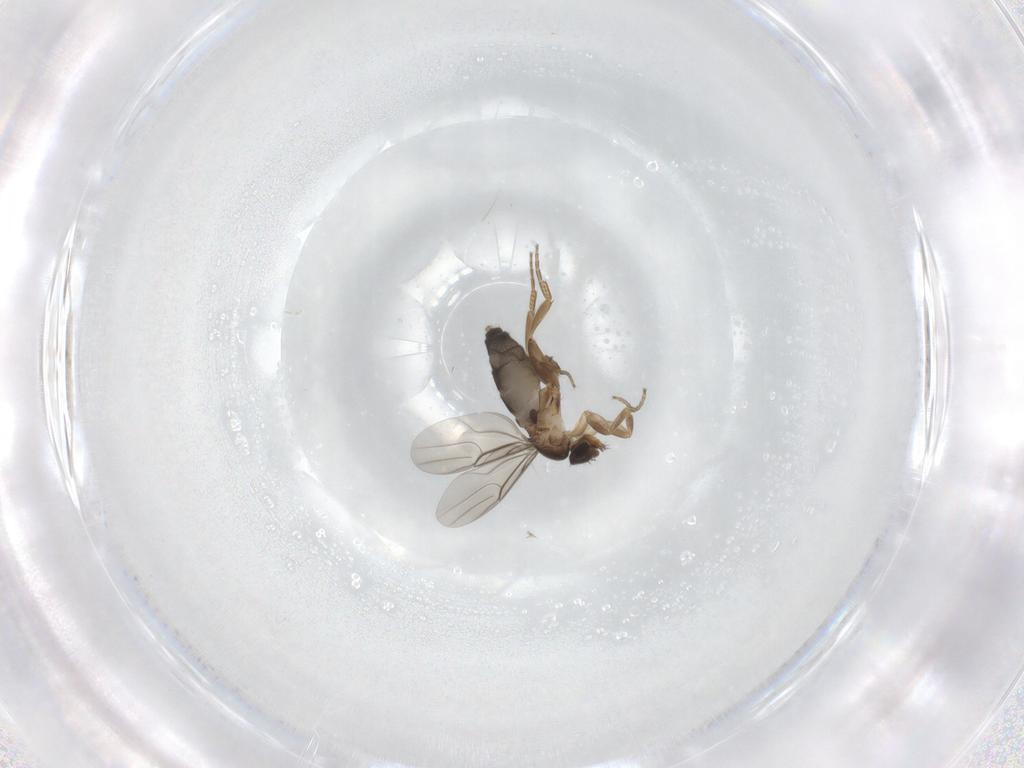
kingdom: Animalia
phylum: Arthropoda
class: Insecta
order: Diptera
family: Phoridae
